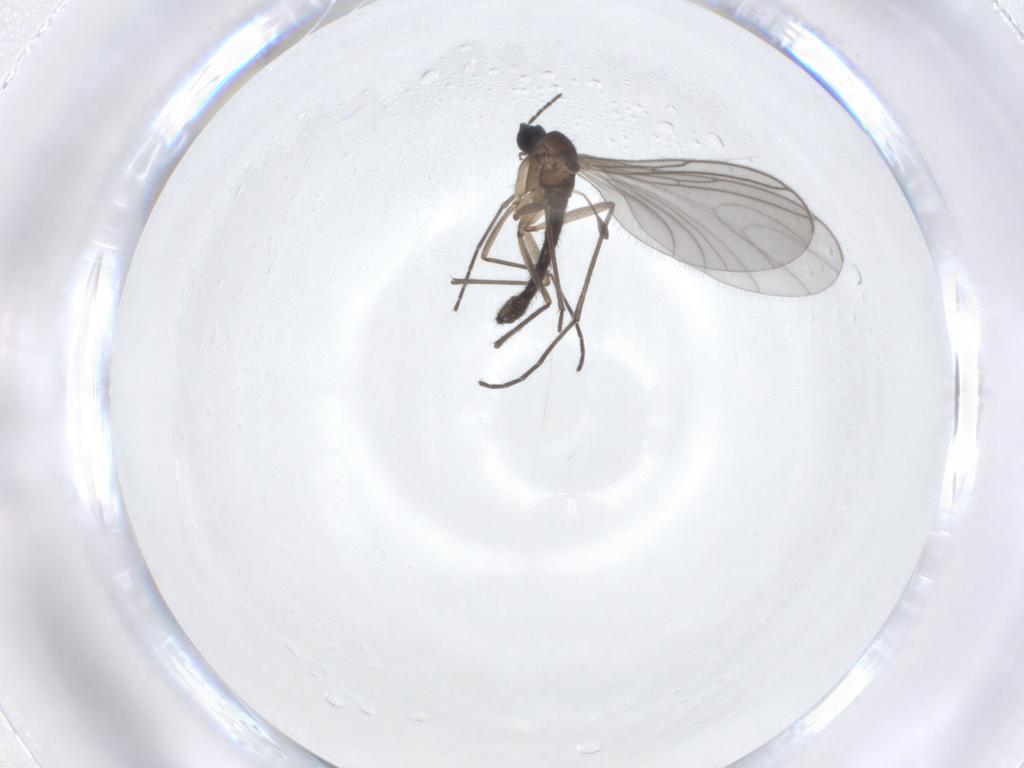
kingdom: Animalia
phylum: Arthropoda
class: Insecta
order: Diptera
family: Sciaridae
